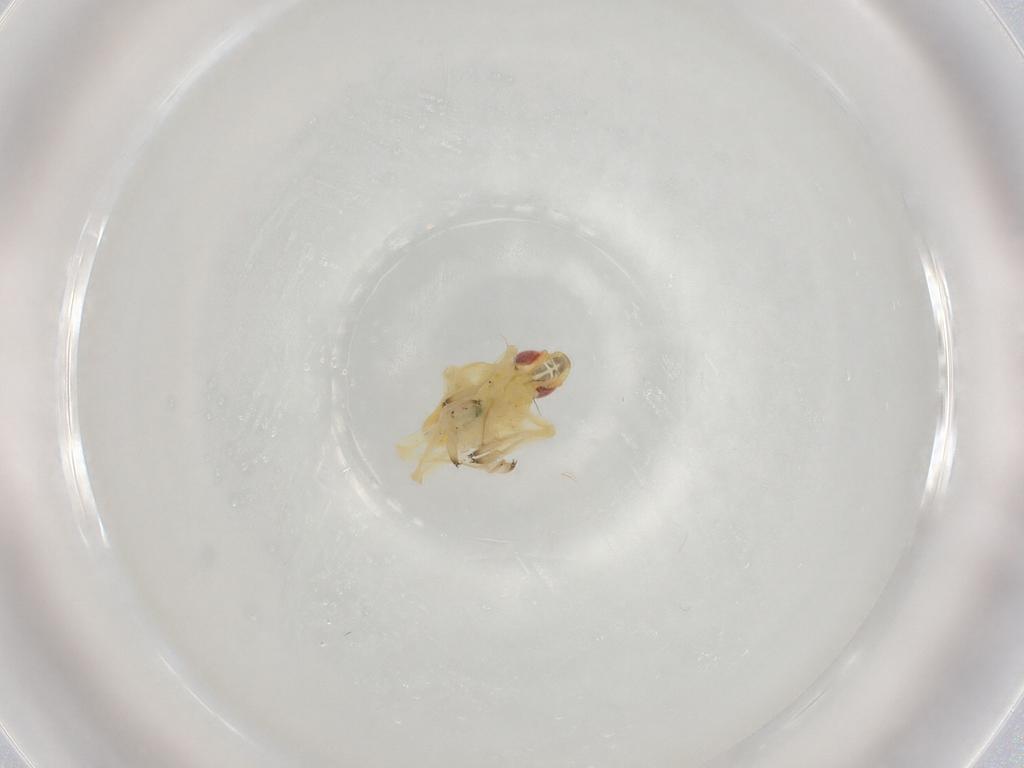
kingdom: Animalia
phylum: Arthropoda
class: Insecta
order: Hemiptera
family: Caliscelidae
